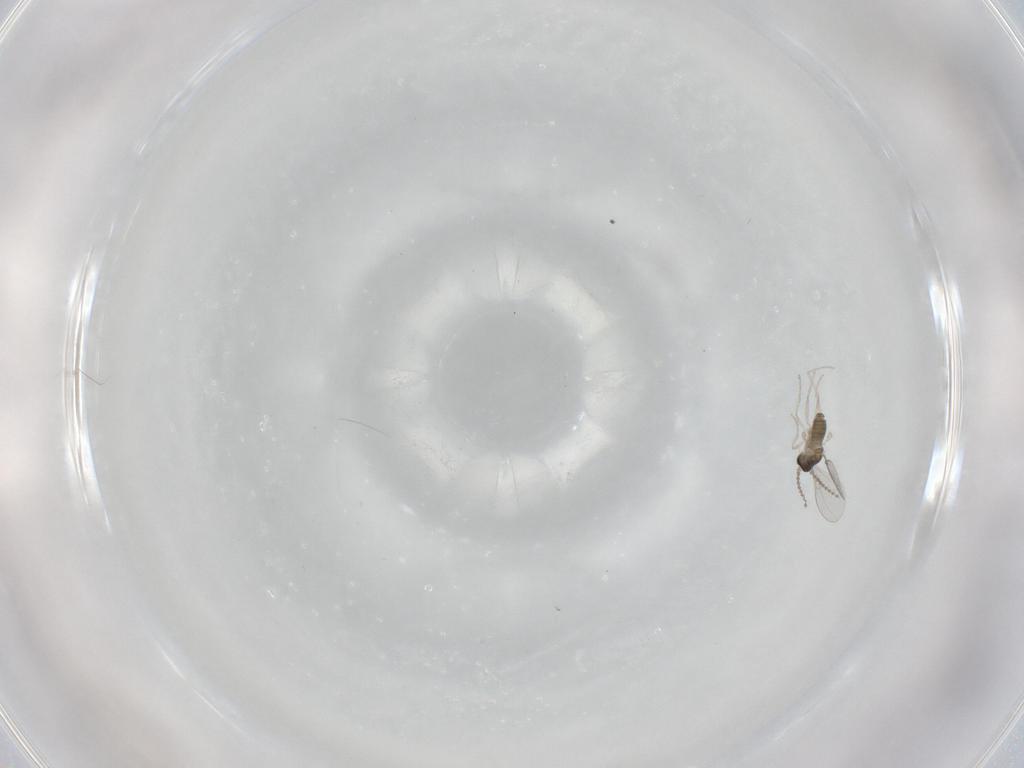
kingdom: Animalia
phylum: Arthropoda
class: Insecta
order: Diptera
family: Cecidomyiidae
